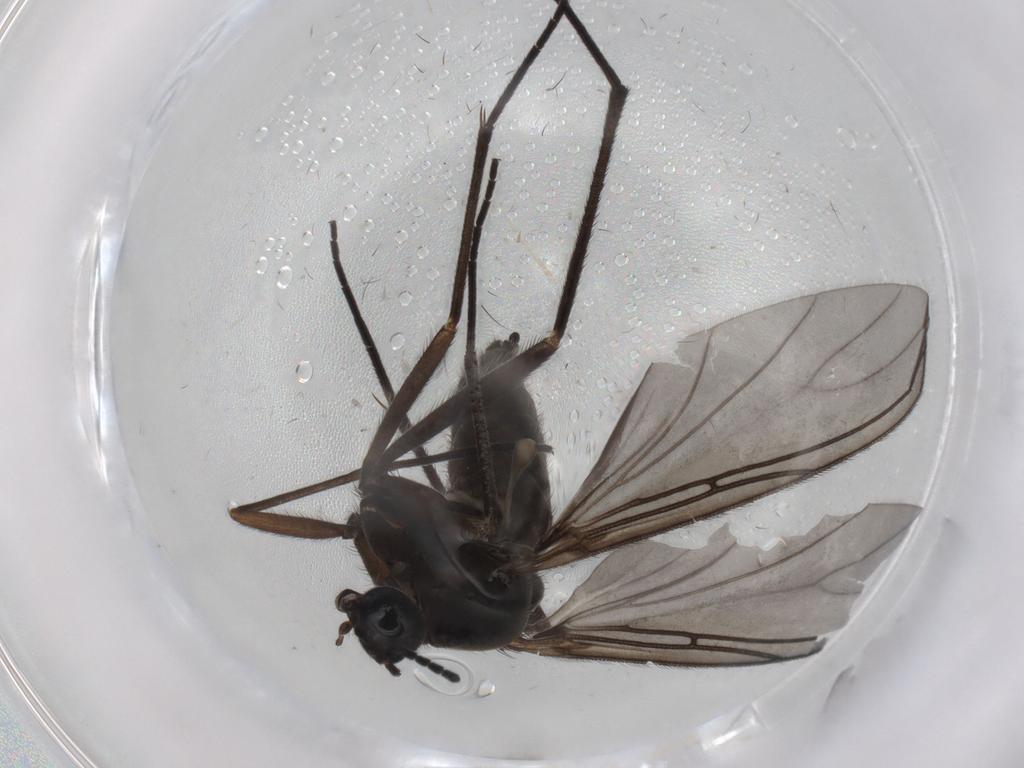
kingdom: Animalia
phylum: Arthropoda
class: Insecta
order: Diptera
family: Sciaridae
